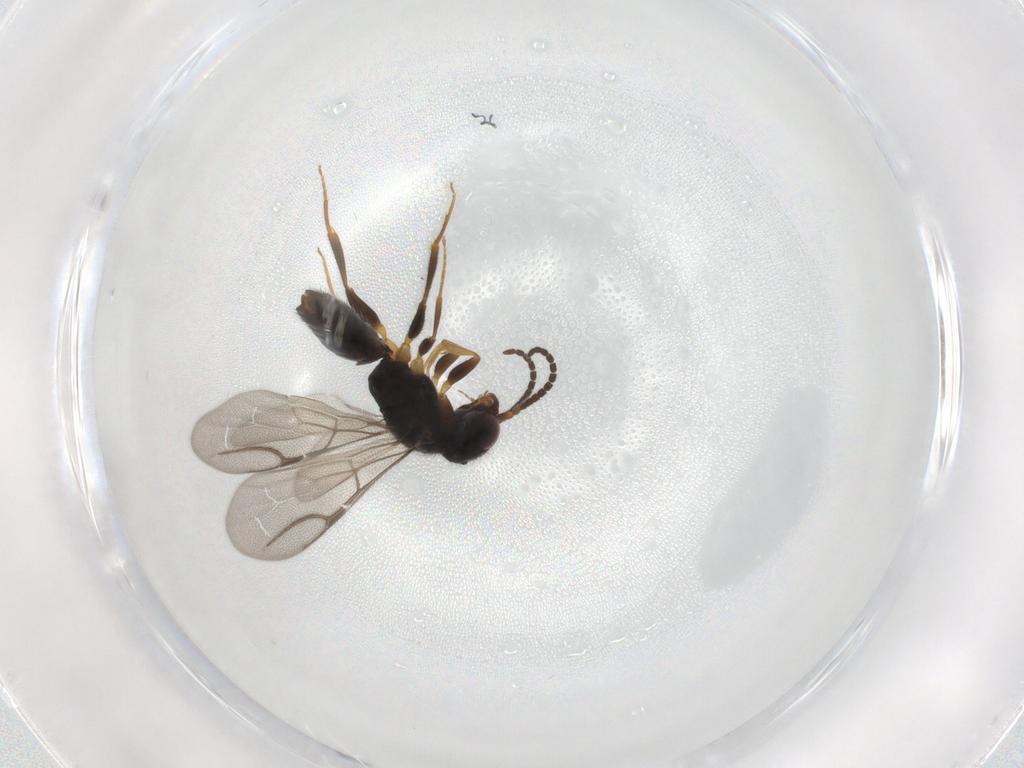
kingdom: Animalia
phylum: Arthropoda
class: Insecta
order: Hymenoptera
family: Bethylidae
